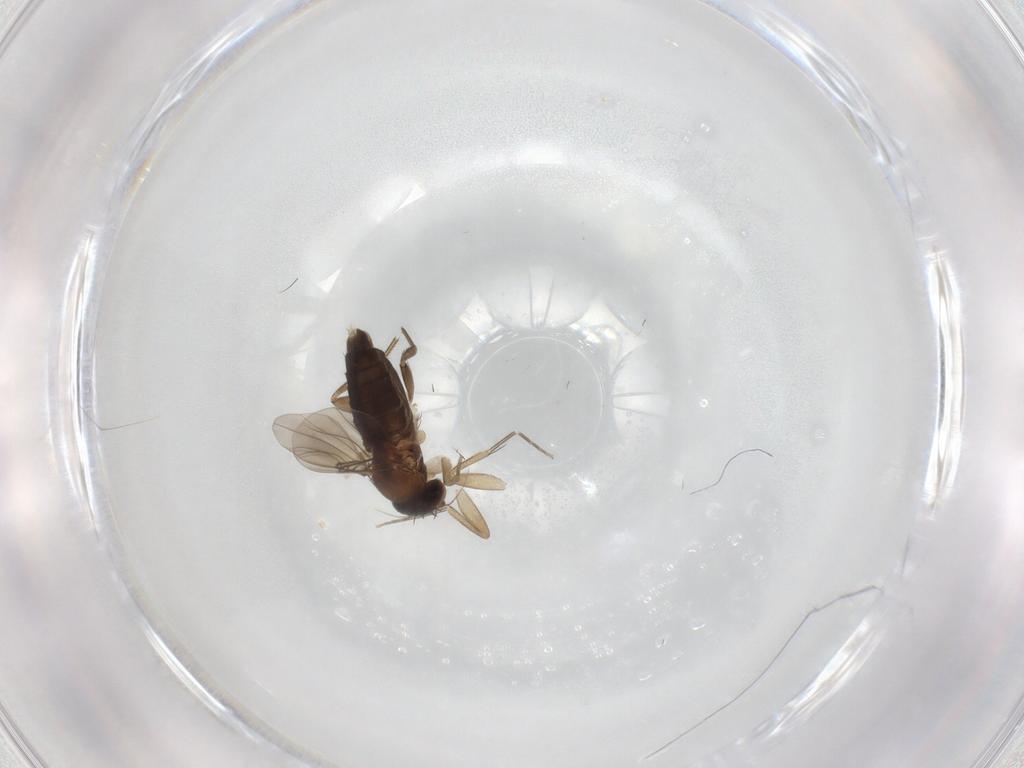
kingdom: Animalia
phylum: Arthropoda
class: Insecta
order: Diptera
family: Phoridae
